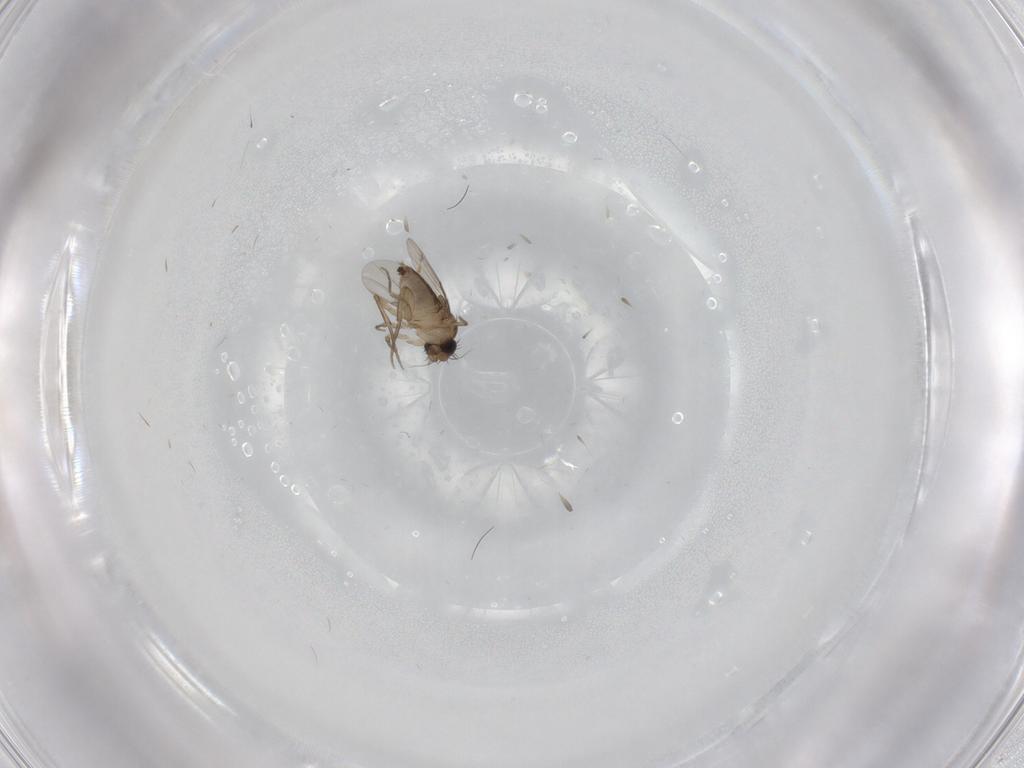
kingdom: Animalia
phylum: Arthropoda
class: Insecta
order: Diptera
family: Phoridae
